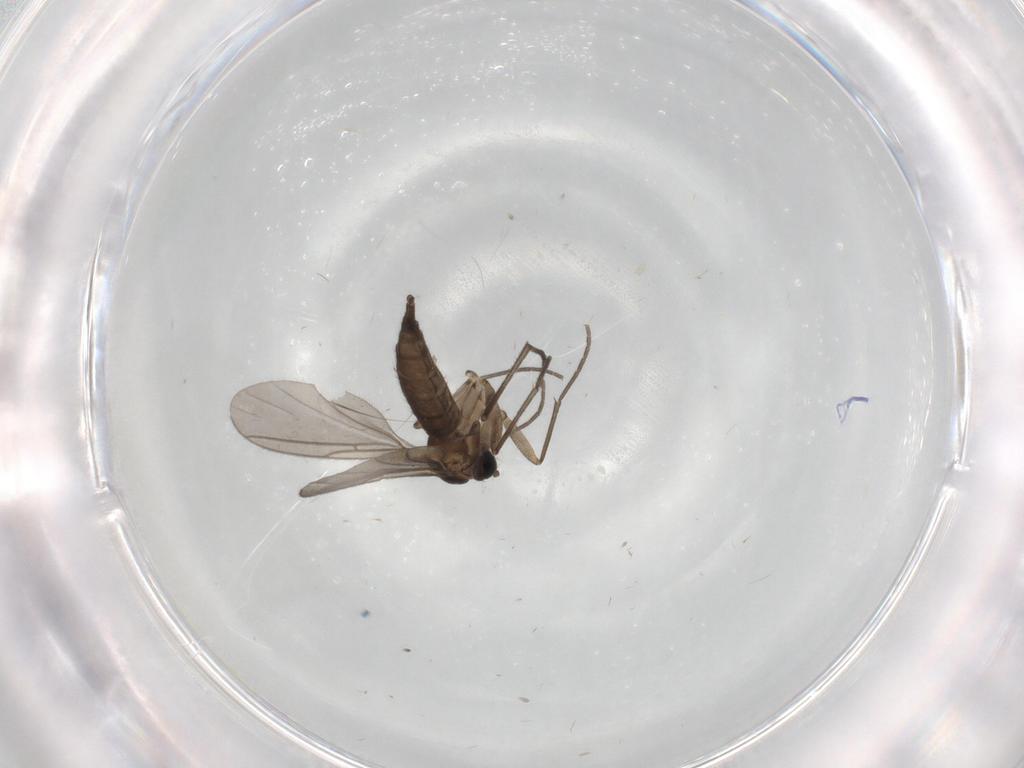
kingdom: Animalia
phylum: Arthropoda
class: Insecta
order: Diptera
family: Sciaridae
